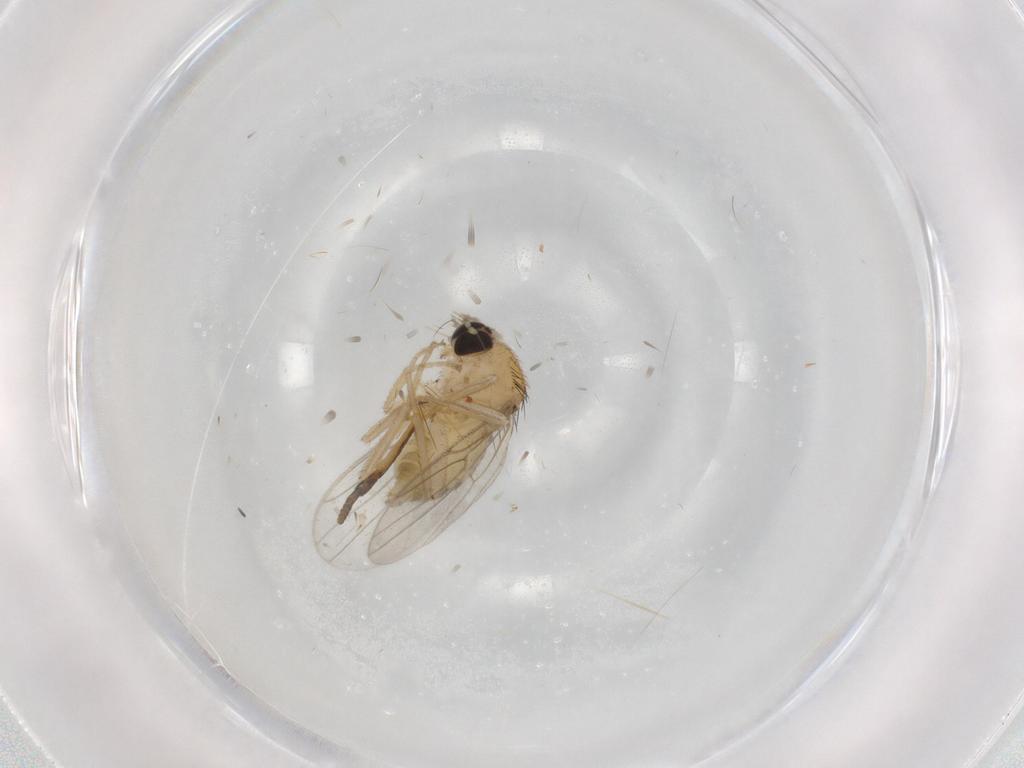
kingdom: Animalia
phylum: Arthropoda
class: Insecta
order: Diptera
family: Hybotidae
